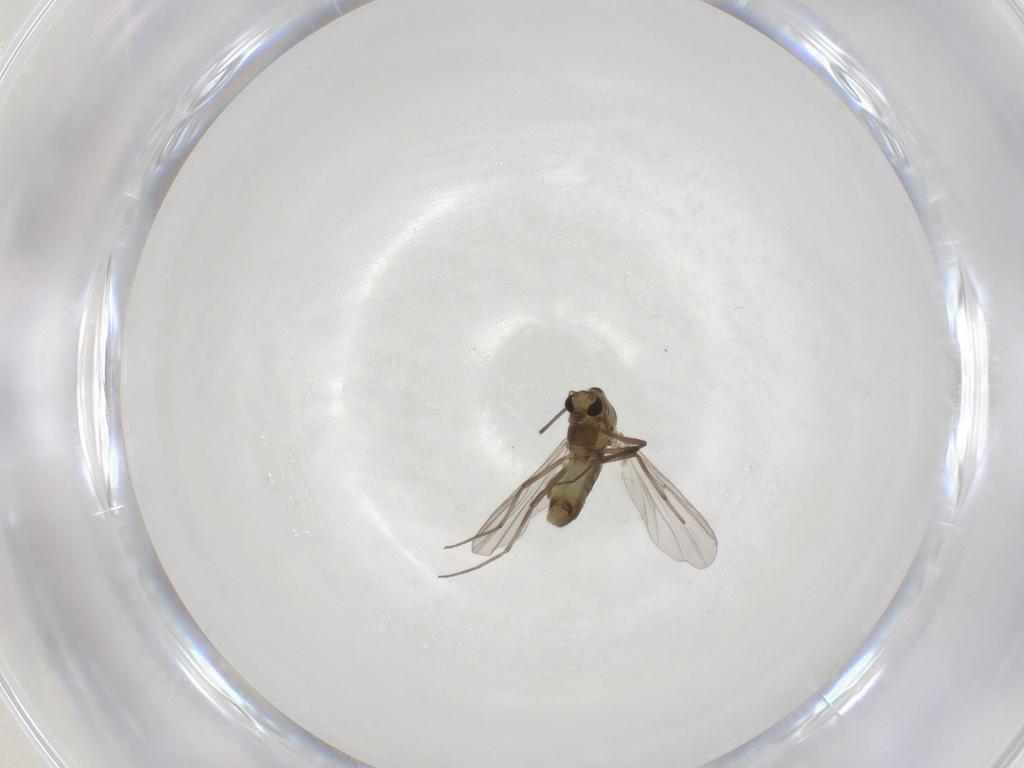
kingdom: Animalia
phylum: Arthropoda
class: Insecta
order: Diptera
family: Chironomidae
